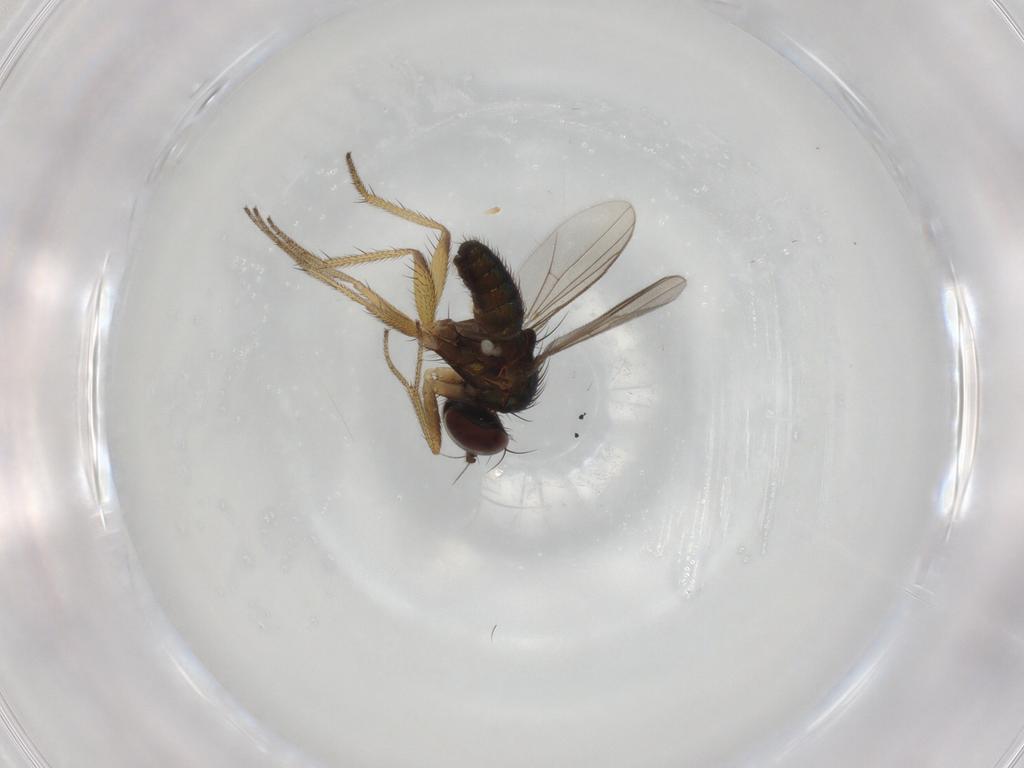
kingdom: Animalia
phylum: Arthropoda
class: Insecta
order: Diptera
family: Dolichopodidae
